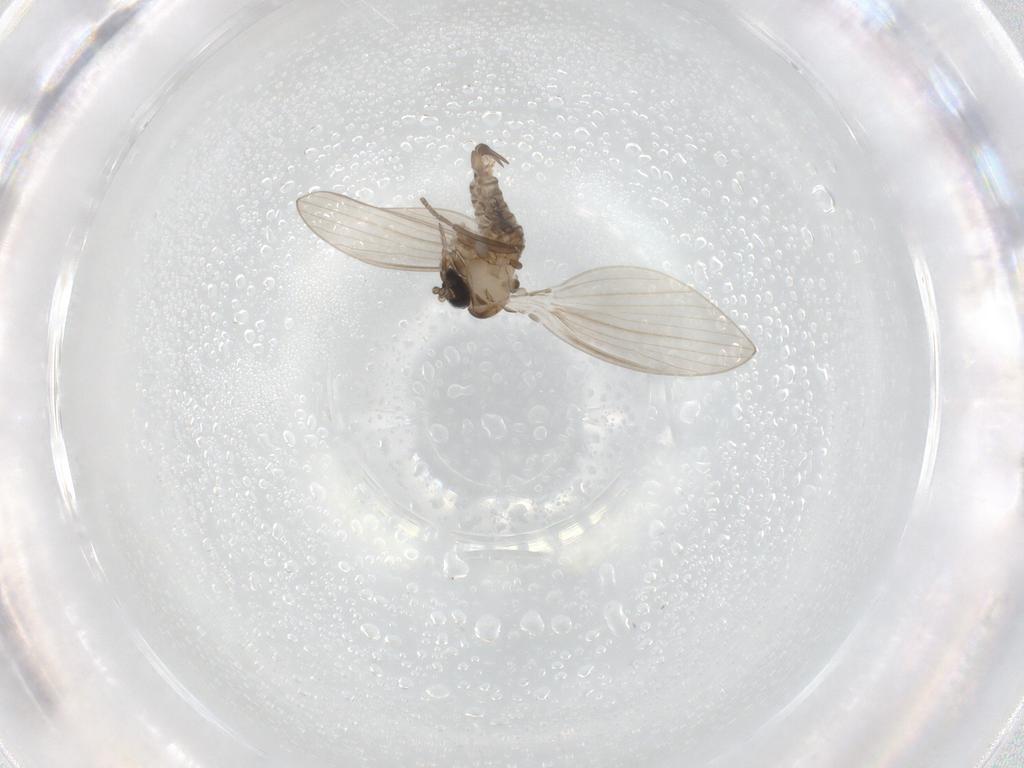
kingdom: Animalia
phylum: Arthropoda
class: Insecta
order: Diptera
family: Psychodidae
